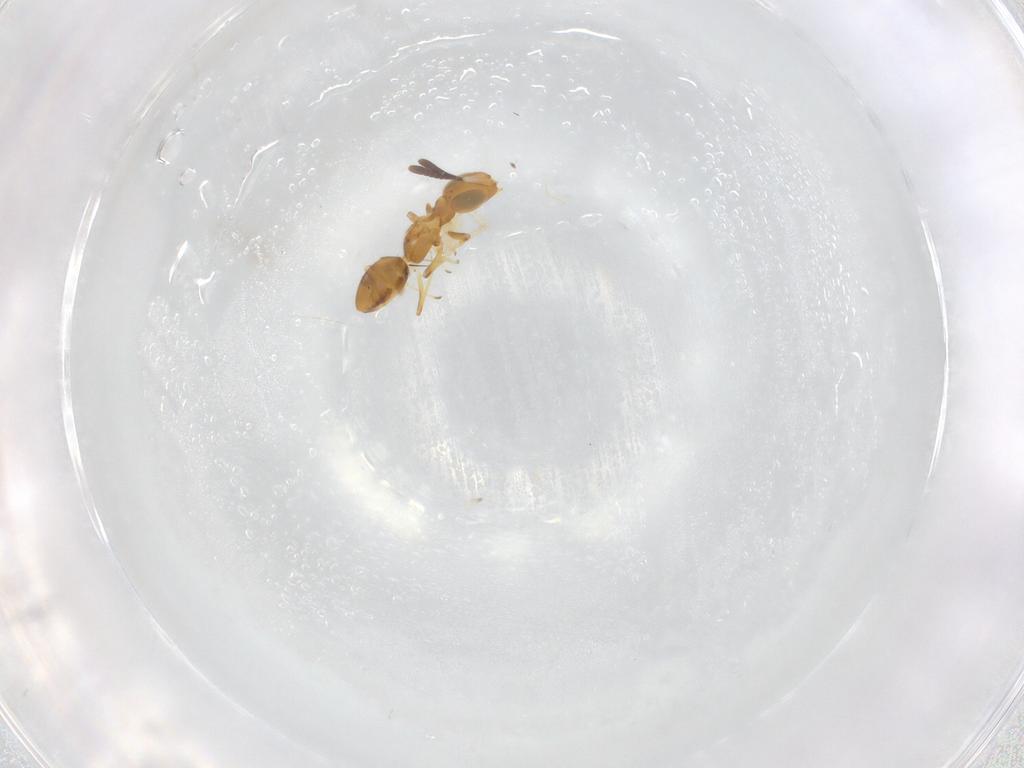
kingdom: Animalia
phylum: Arthropoda
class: Insecta
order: Hymenoptera
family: Encyrtidae
